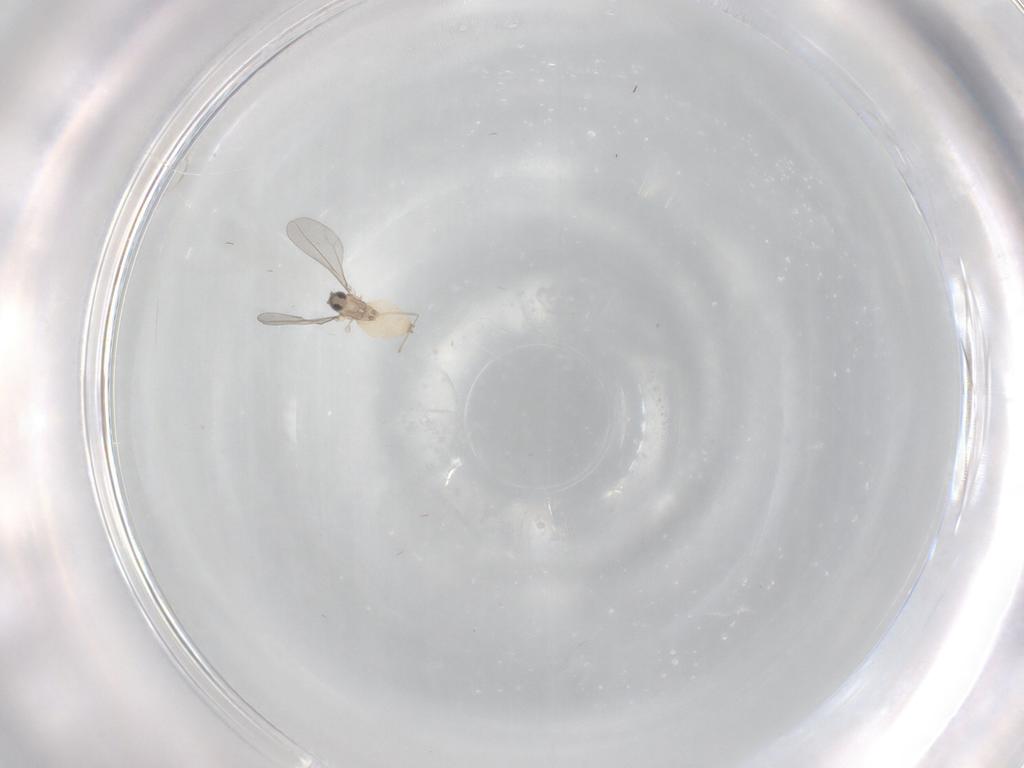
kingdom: Animalia
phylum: Arthropoda
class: Insecta
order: Diptera
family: Cecidomyiidae
